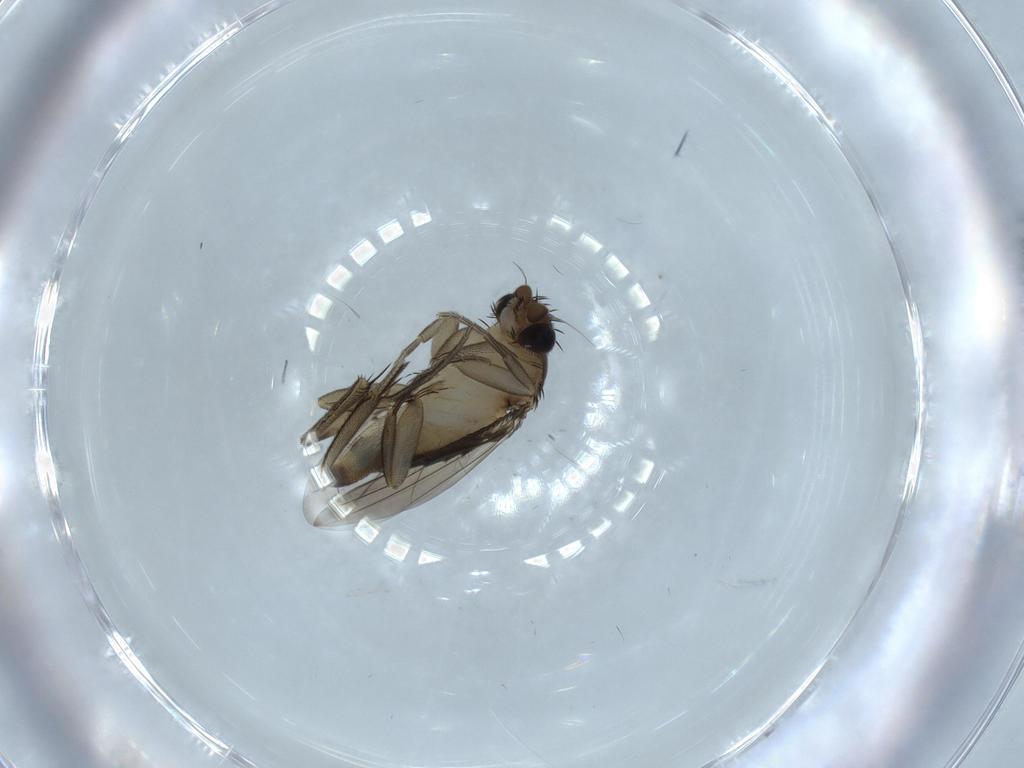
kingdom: Animalia
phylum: Arthropoda
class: Insecta
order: Diptera
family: Phoridae
